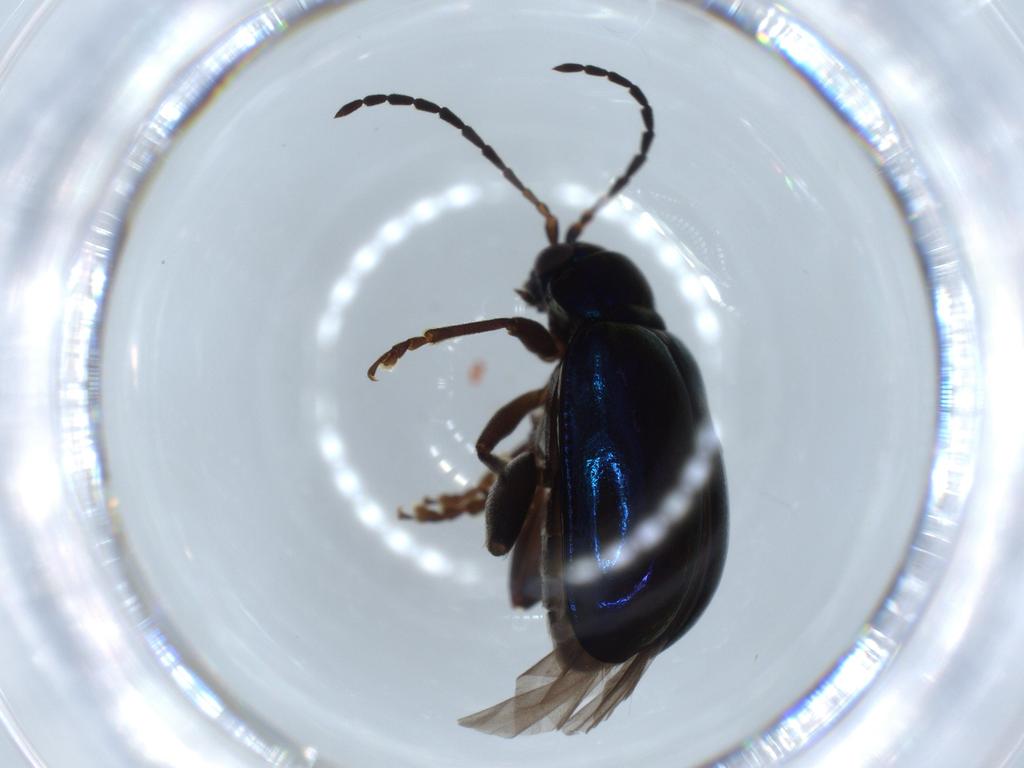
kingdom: Animalia
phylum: Arthropoda
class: Insecta
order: Coleoptera
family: Chrysomelidae
